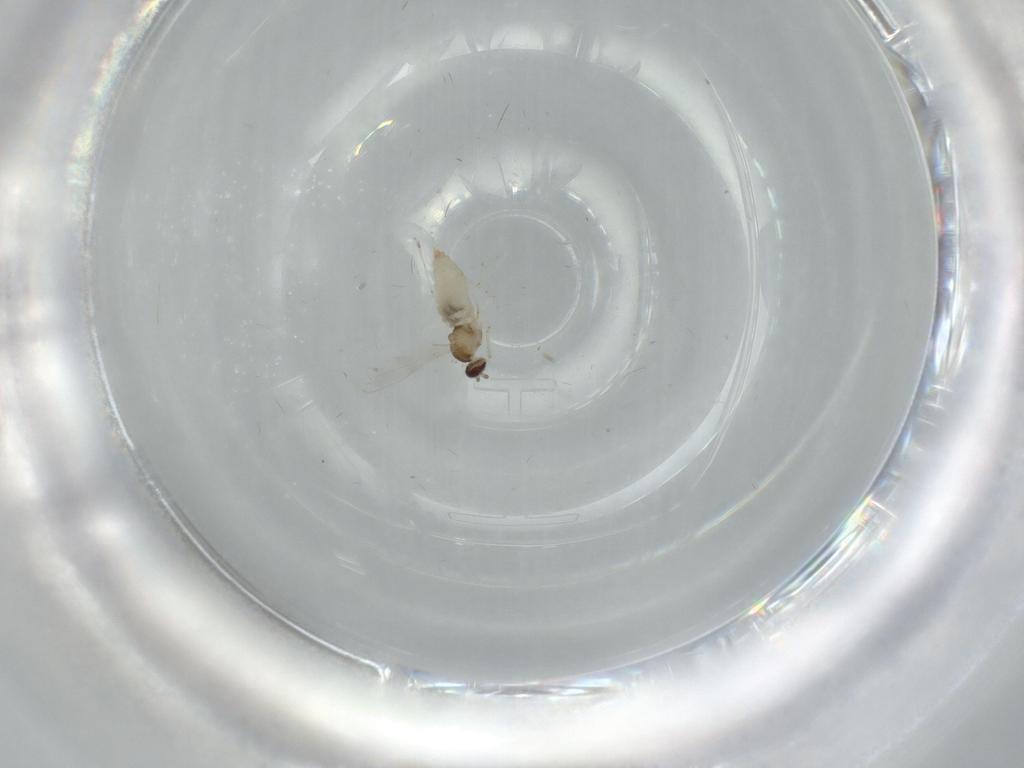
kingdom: Animalia
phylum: Arthropoda
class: Insecta
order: Diptera
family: Cecidomyiidae
